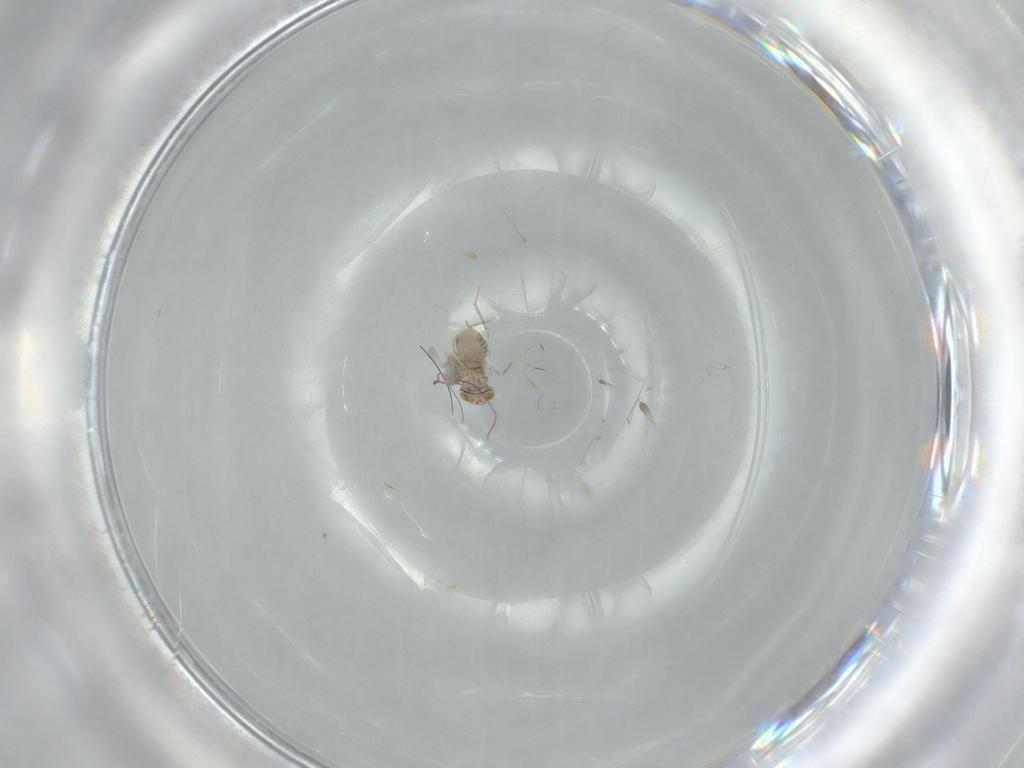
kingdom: Animalia
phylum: Arthropoda
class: Insecta
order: Hymenoptera
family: Aphelinidae
